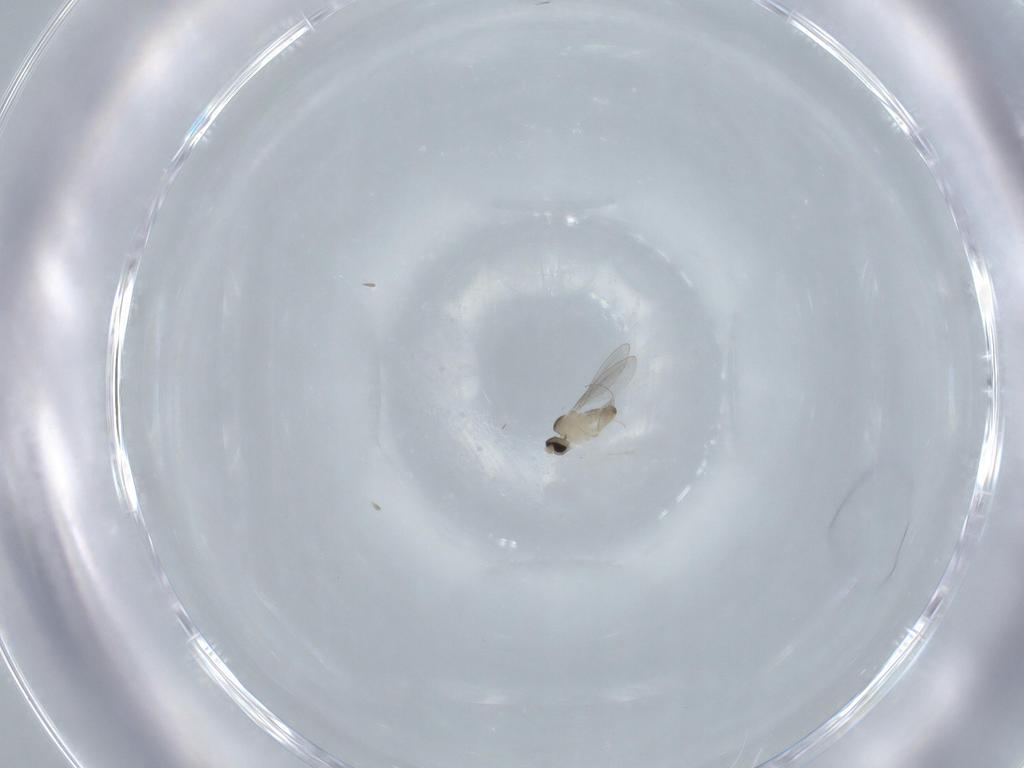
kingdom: Animalia
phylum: Arthropoda
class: Insecta
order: Diptera
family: Cecidomyiidae
